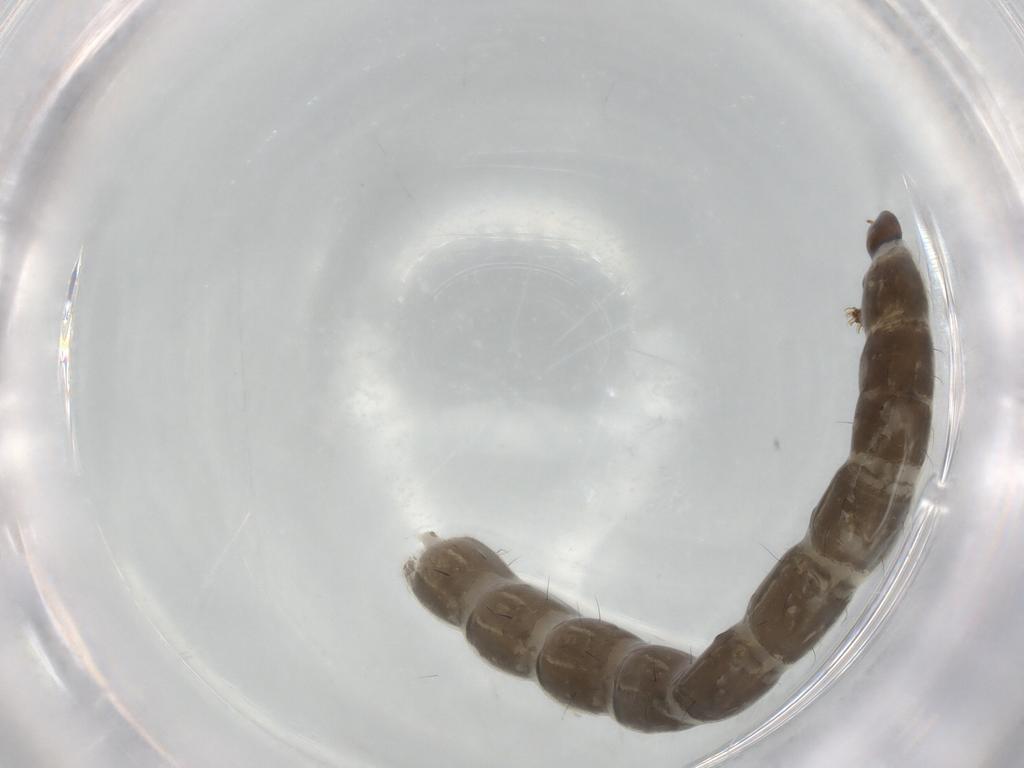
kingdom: Animalia
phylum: Arthropoda
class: Insecta
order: Diptera
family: Chironomidae
